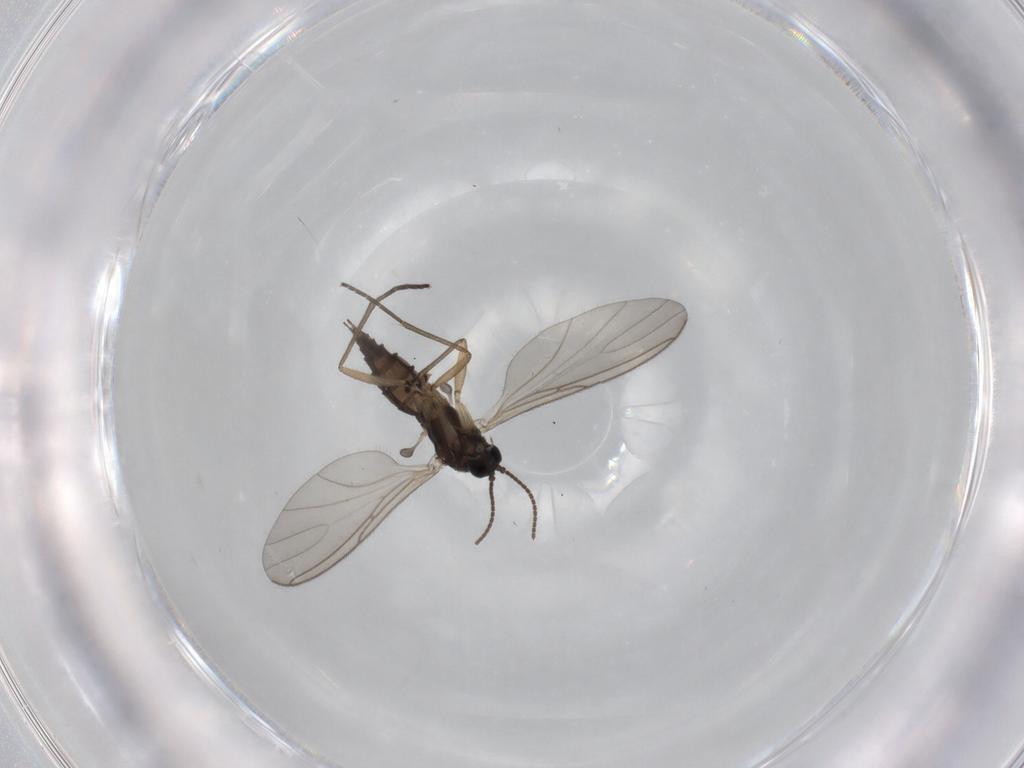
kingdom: Animalia
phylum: Arthropoda
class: Insecta
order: Diptera
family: Sciaridae
